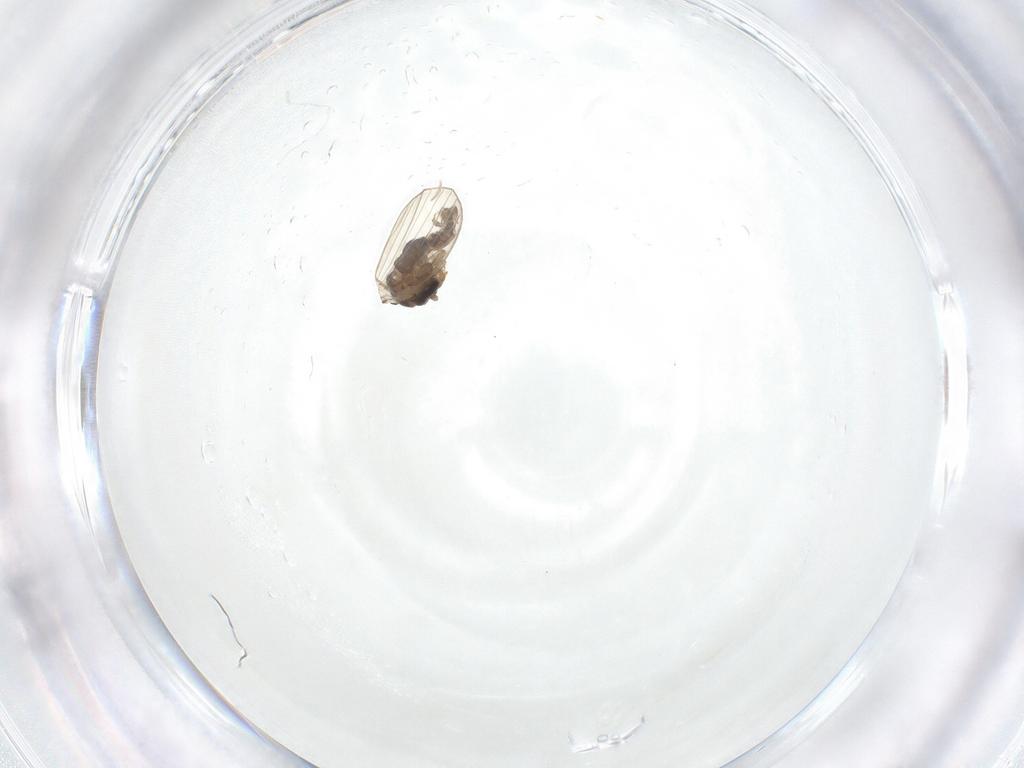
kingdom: Animalia
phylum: Arthropoda
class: Insecta
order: Diptera
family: Psychodidae
